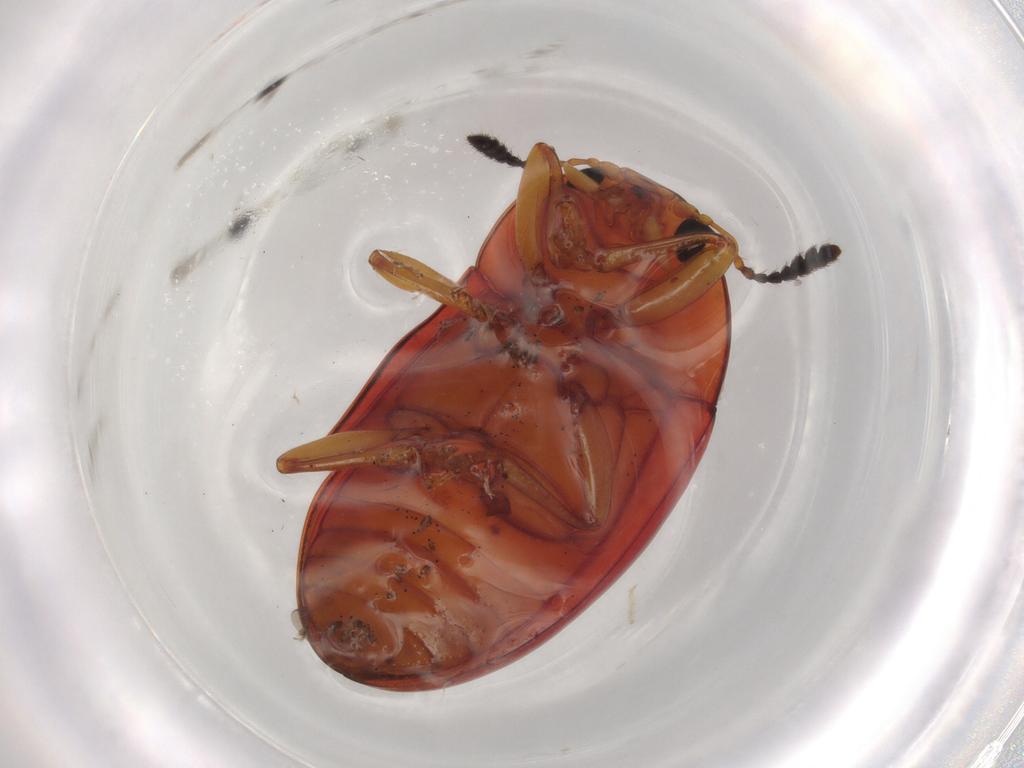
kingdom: Animalia
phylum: Arthropoda
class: Insecta
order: Coleoptera
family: Erotylidae
